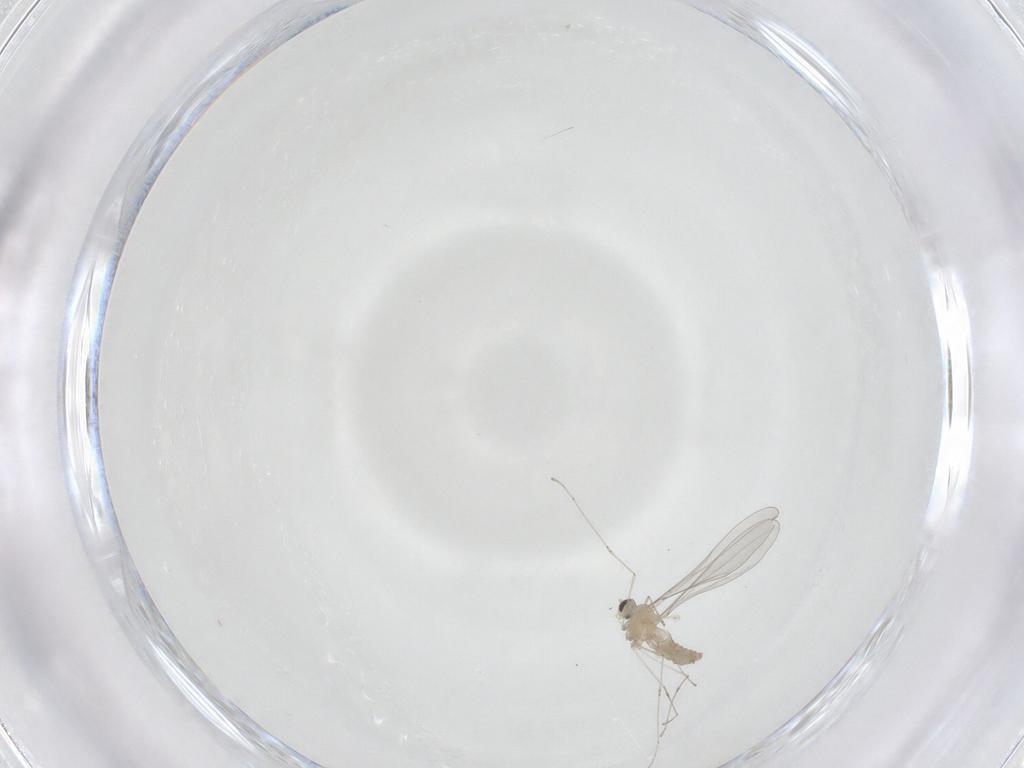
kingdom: Animalia
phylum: Arthropoda
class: Insecta
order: Diptera
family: Cecidomyiidae
